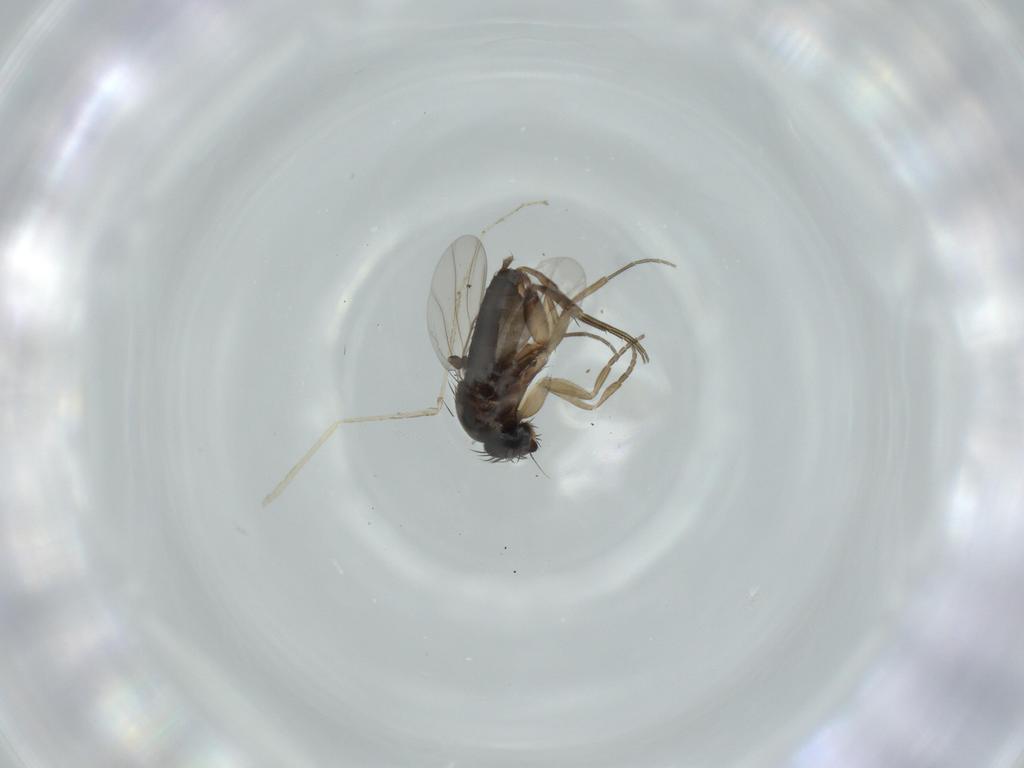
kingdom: Animalia
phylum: Arthropoda
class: Insecta
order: Diptera
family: Phoridae
